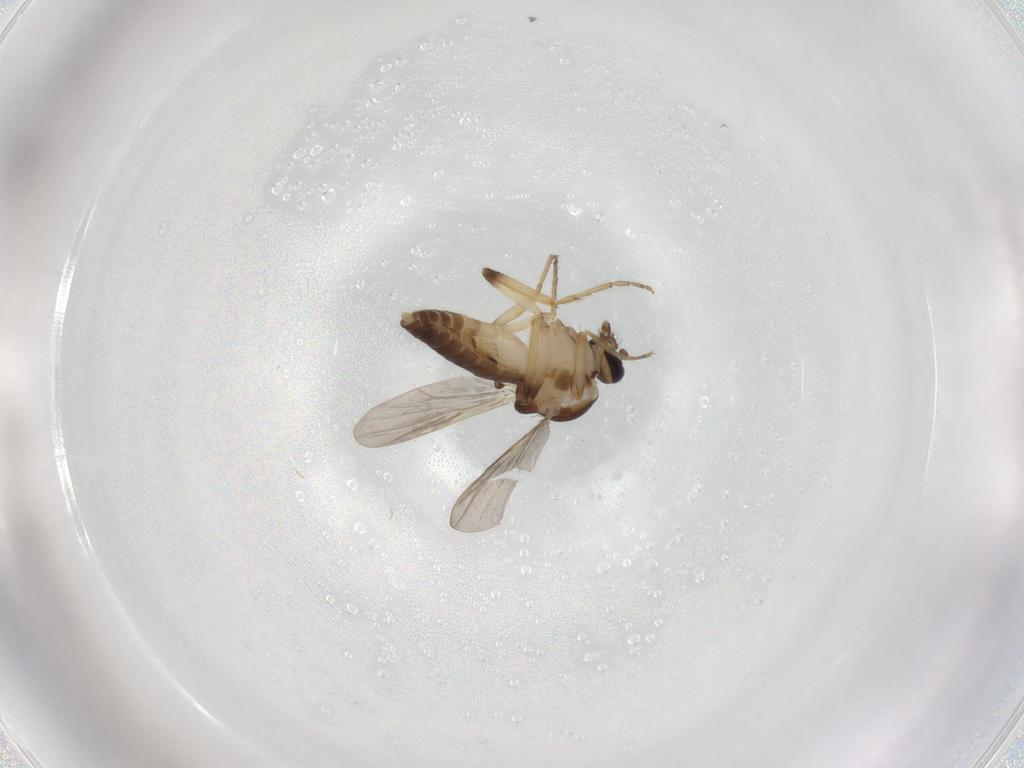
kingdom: Animalia
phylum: Arthropoda
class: Insecta
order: Diptera
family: Ceratopogonidae
